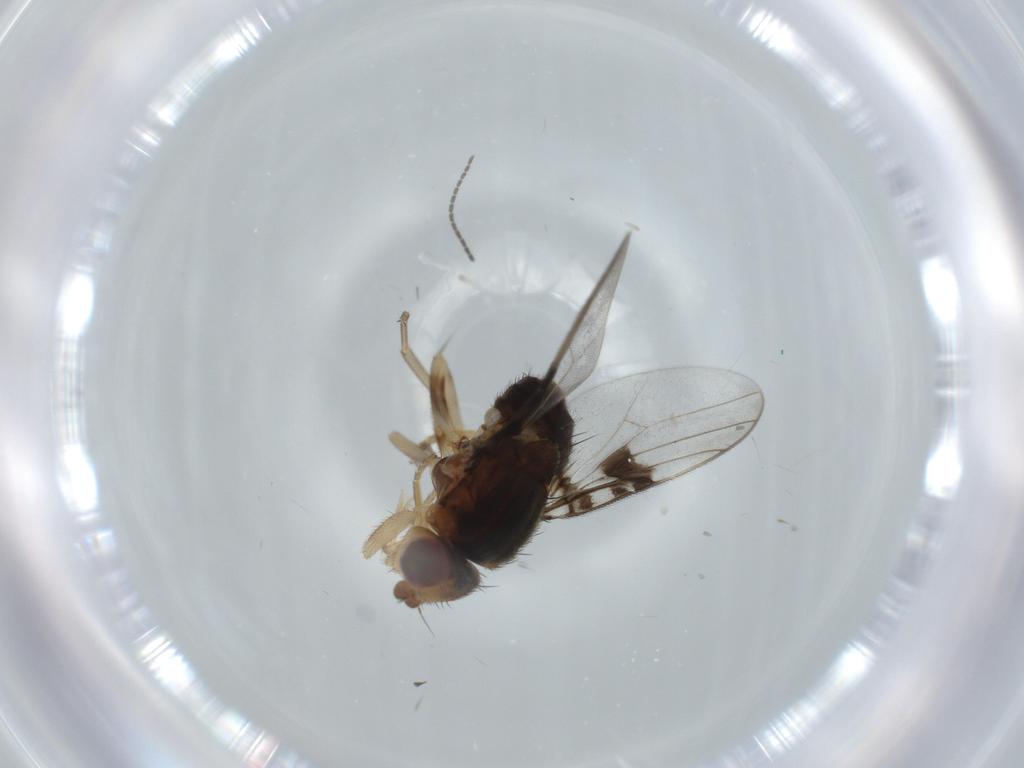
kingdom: Animalia
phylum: Arthropoda
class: Insecta
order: Diptera
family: Chloropidae
